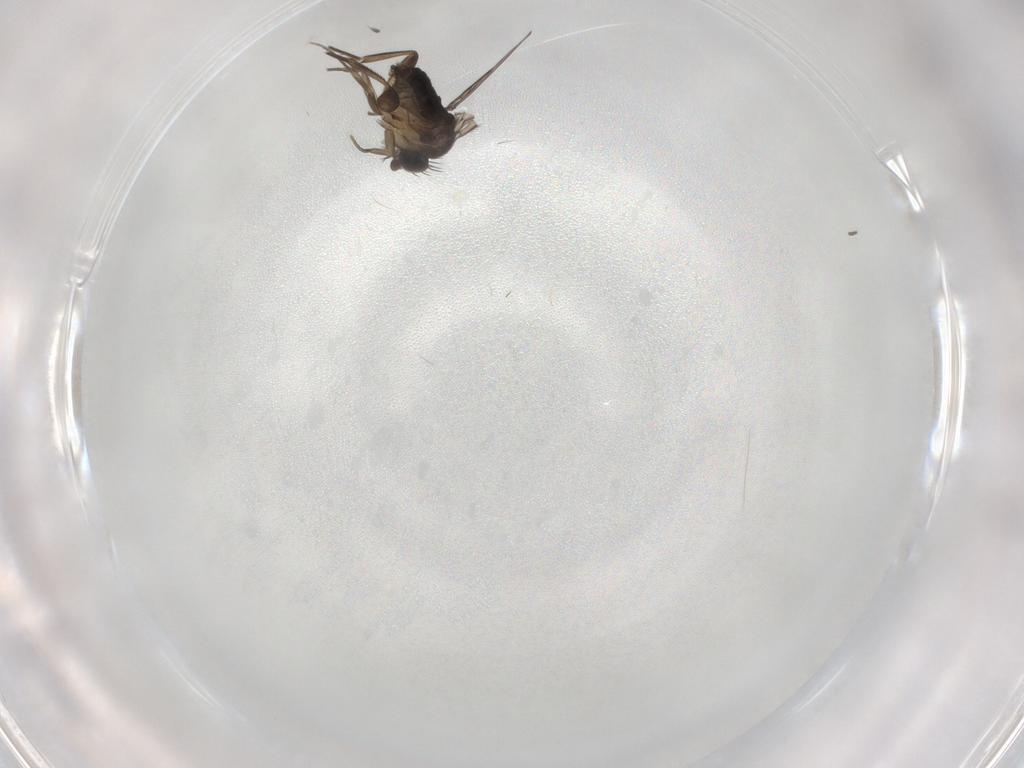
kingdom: Animalia
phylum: Arthropoda
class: Insecta
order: Diptera
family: Phoridae
